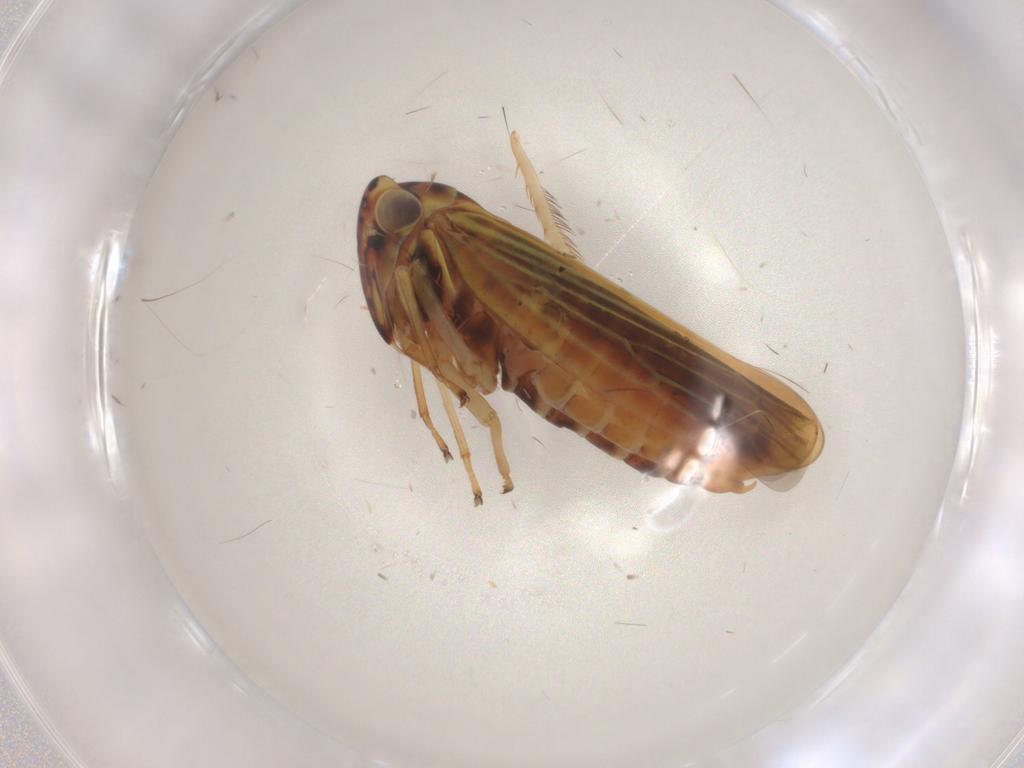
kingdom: Animalia
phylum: Arthropoda
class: Insecta
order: Hemiptera
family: Cicadellidae
